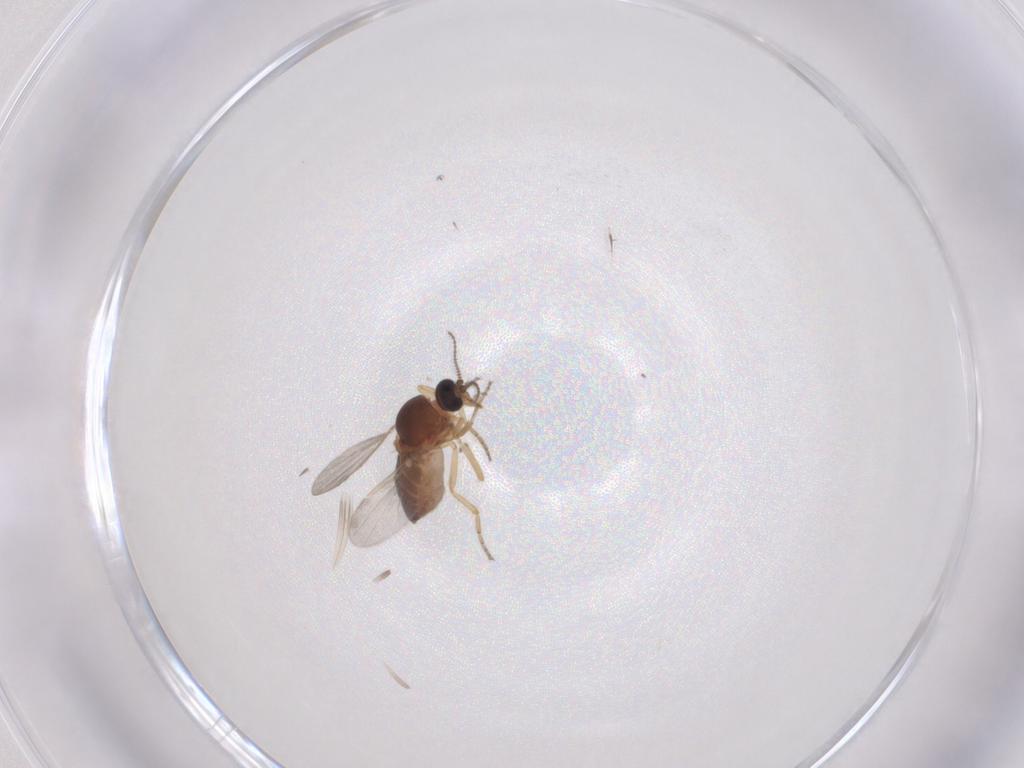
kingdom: Animalia
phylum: Arthropoda
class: Insecta
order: Diptera
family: Ceratopogonidae
